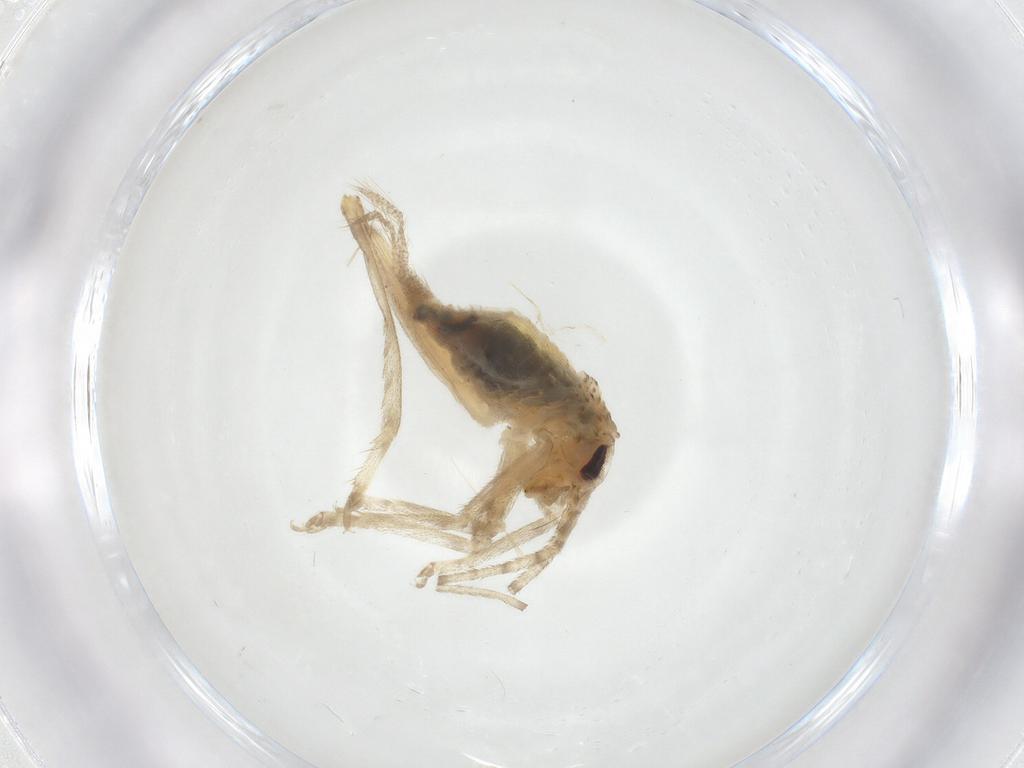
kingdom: Animalia
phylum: Arthropoda
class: Insecta
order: Orthoptera
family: Trigonidiidae
